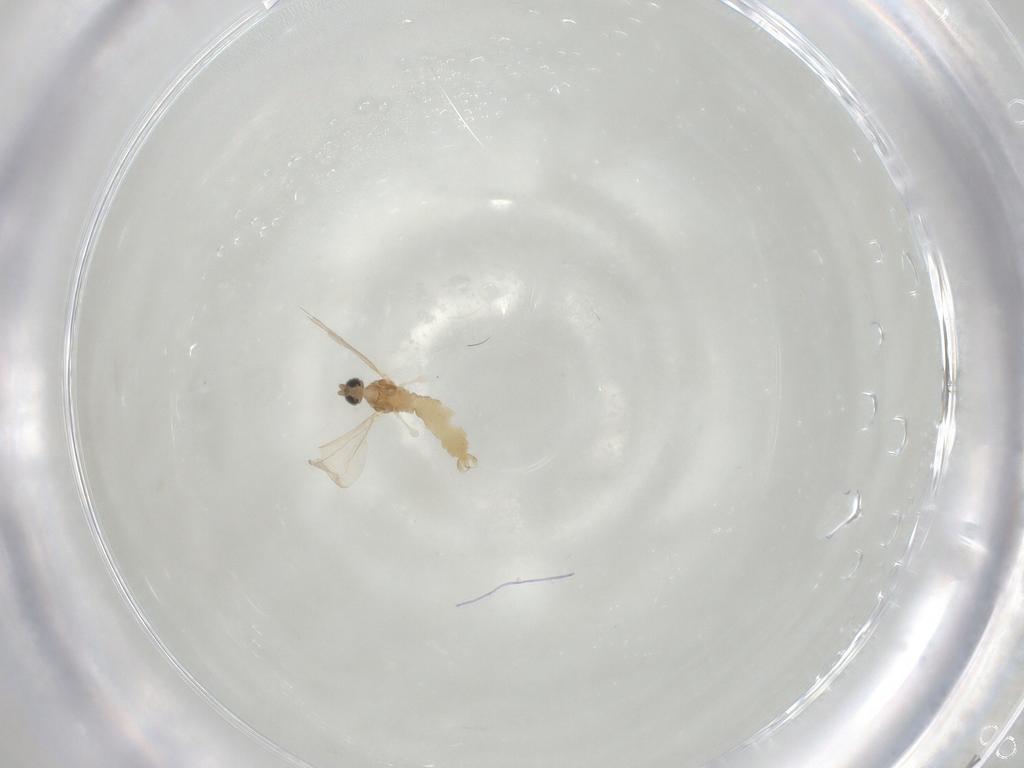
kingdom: Animalia
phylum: Arthropoda
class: Insecta
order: Diptera
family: Cecidomyiidae
